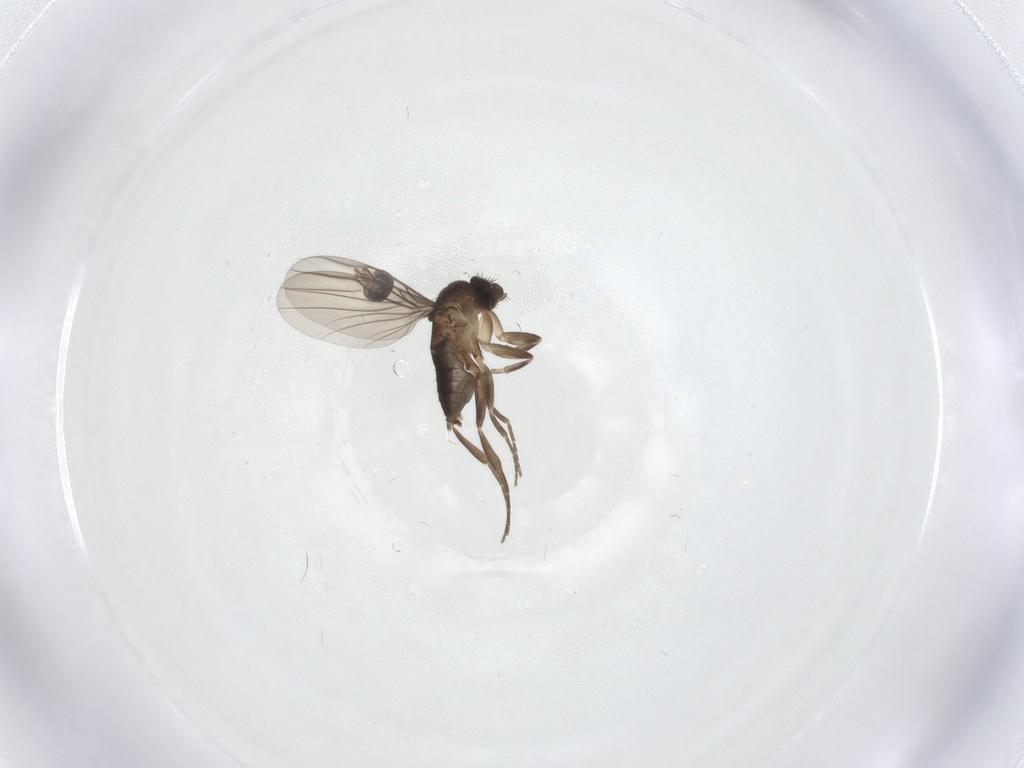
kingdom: Animalia
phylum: Arthropoda
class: Insecta
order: Diptera
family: Ceratopogonidae
